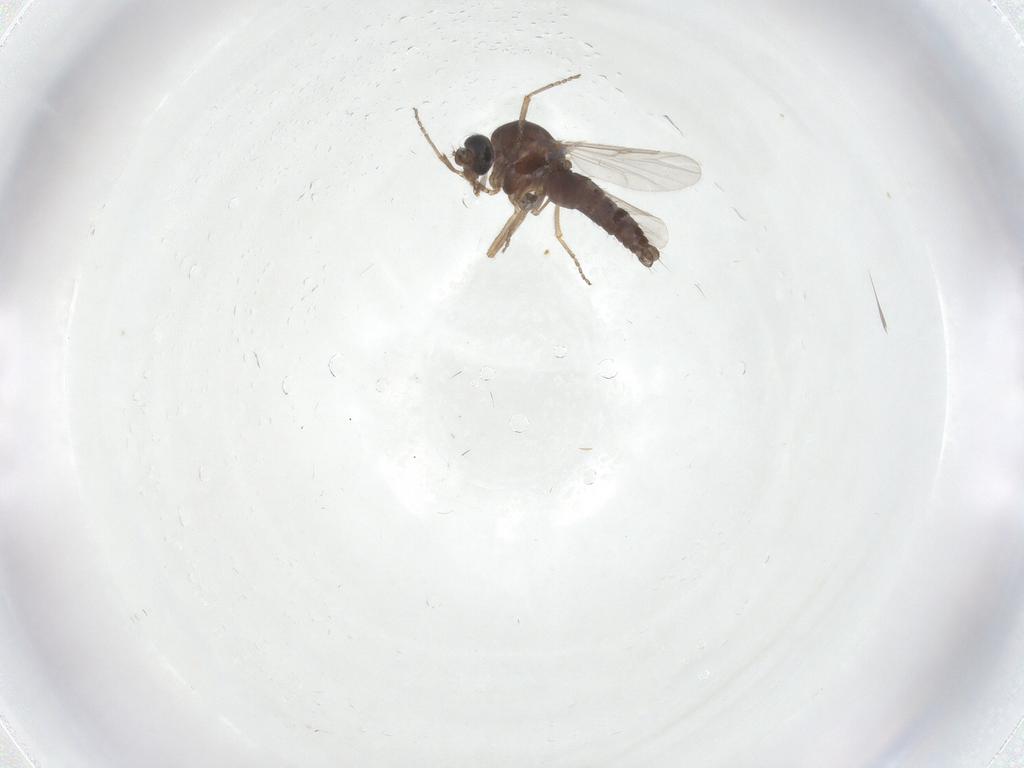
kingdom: Animalia
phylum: Arthropoda
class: Insecta
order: Diptera
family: Ceratopogonidae
